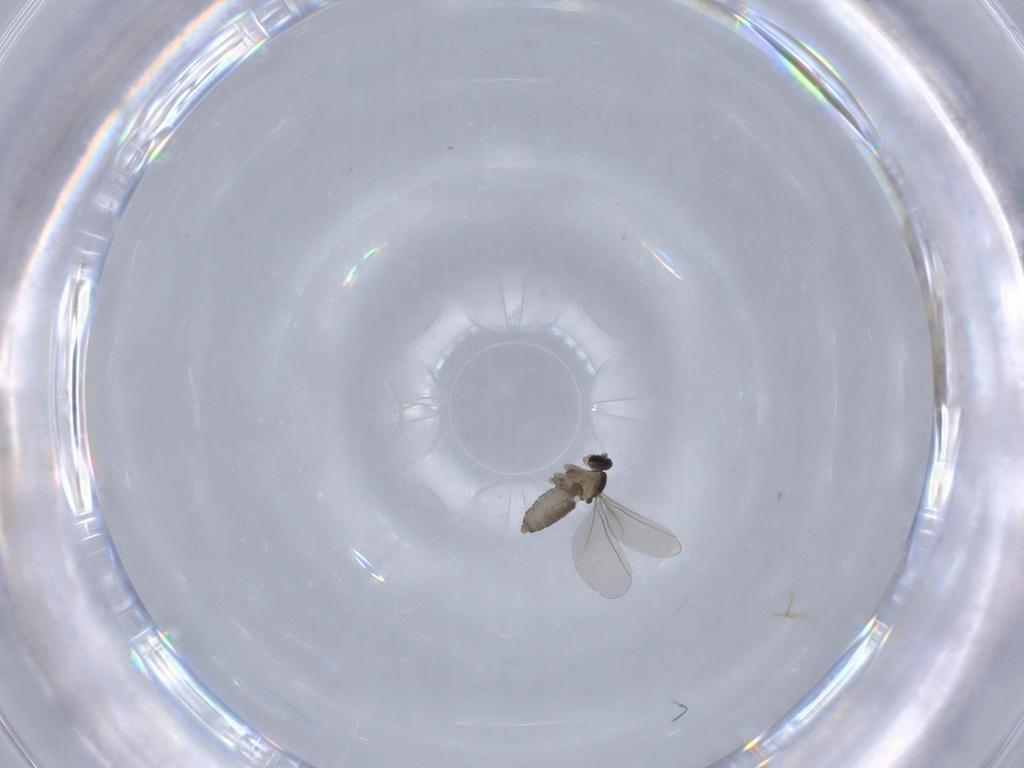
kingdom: Animalia
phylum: Arthropoda
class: Insecta
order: Diptera
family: Cecidomyiidae
